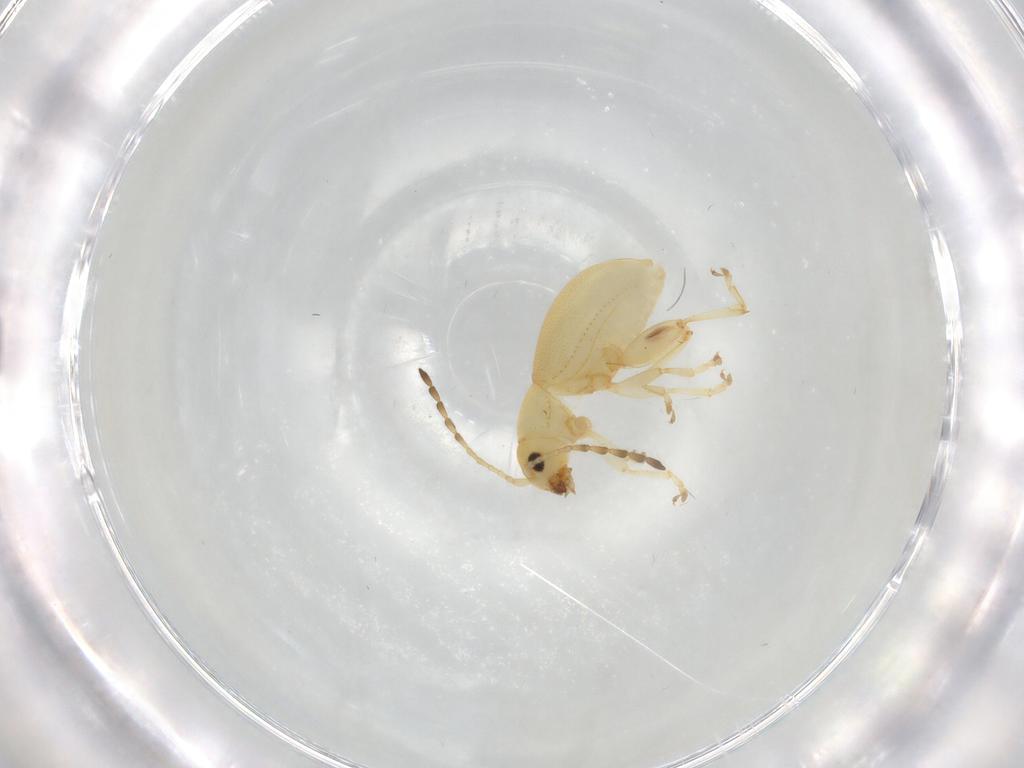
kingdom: Animalia
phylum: Arthropoda
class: Insecta
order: Coleoptera
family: Chrysomelidae
